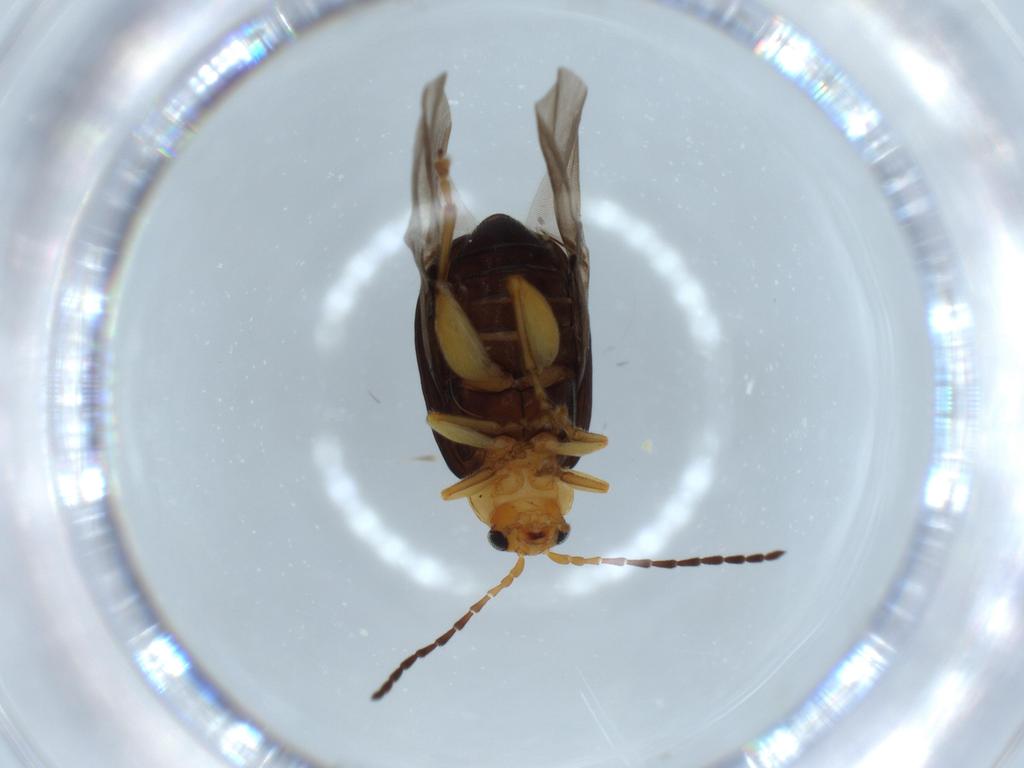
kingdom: Animalia
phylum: Arthropoda
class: Insecta
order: Coleoptera
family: Chrysomelidae
